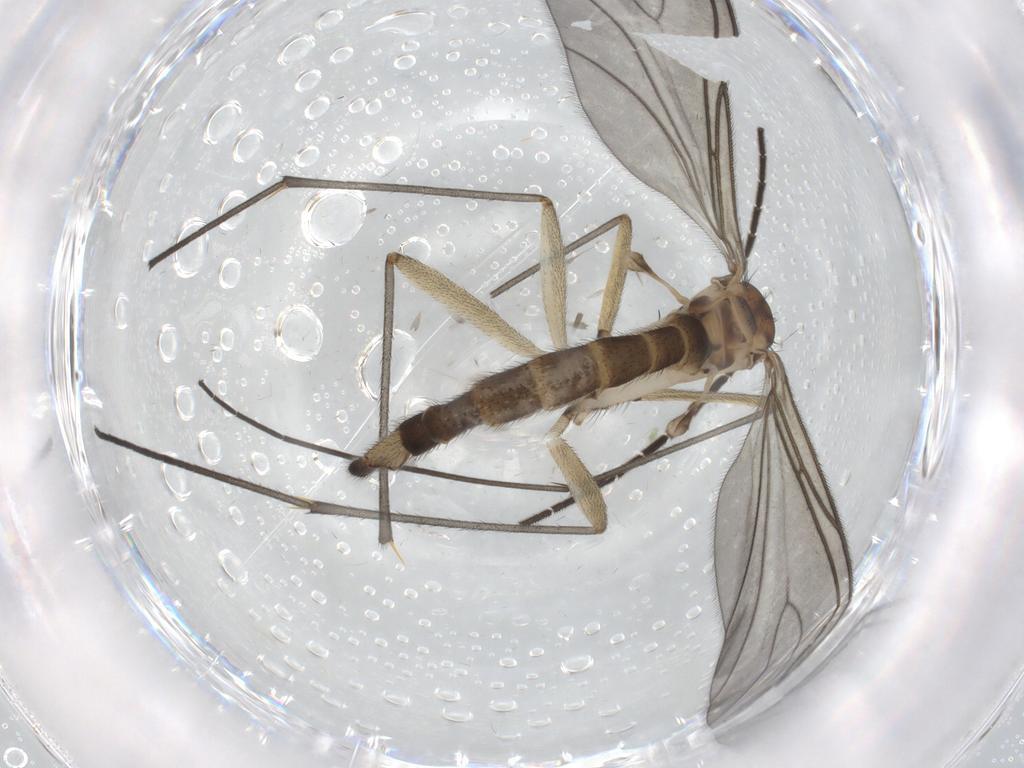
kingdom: Animalia
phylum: Arthropoda
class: Insecta
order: Diptera
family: Sciaridae
